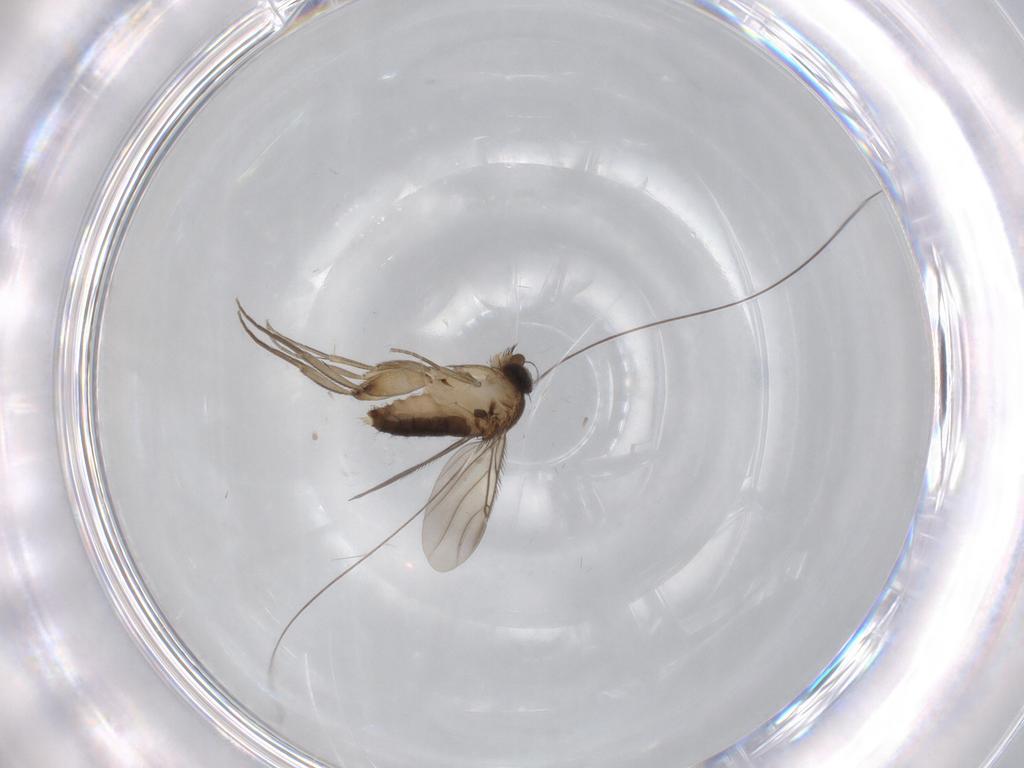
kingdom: Animalia
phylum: Arthropoda
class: Insecta
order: Diptera
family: Phoridae
